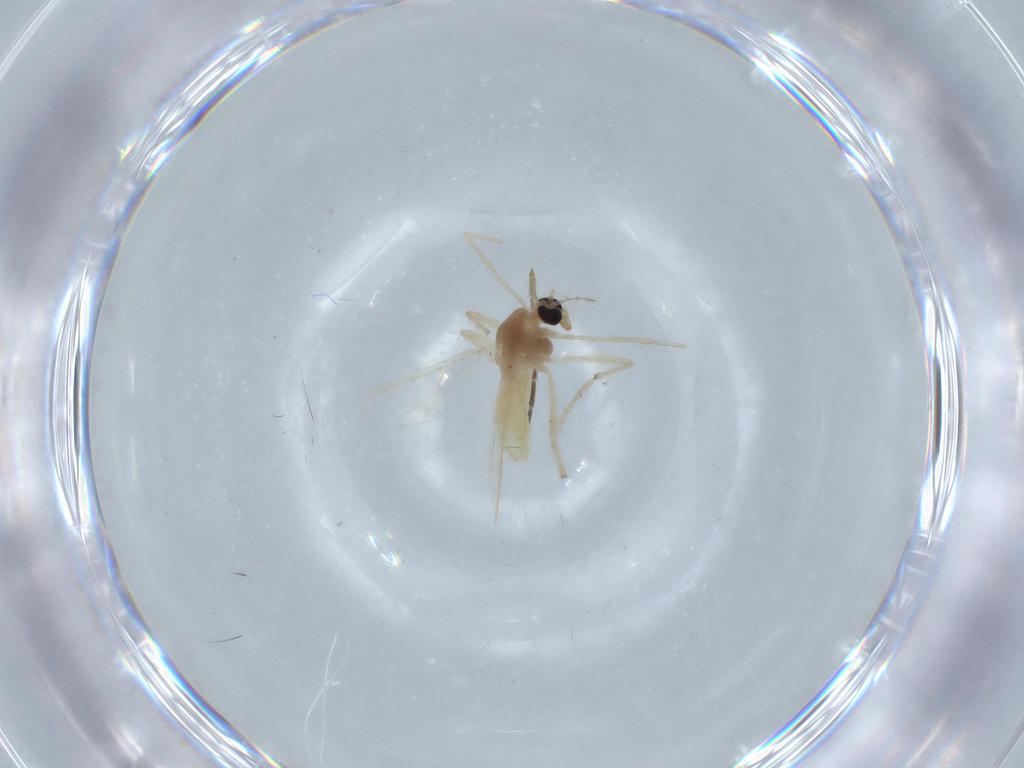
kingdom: Animalia
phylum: Arthropoda
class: Insecta
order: Diptera
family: Chironomidae
